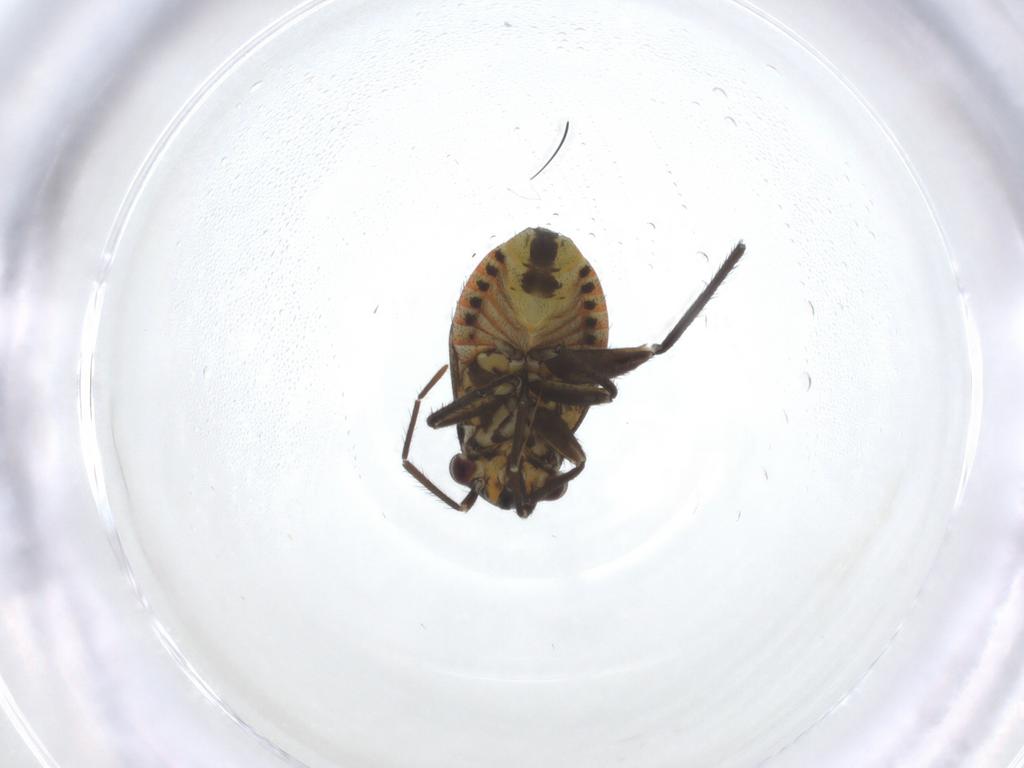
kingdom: Animalia
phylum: Arthropoda
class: Insecta
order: Hemiptera
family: Miridae
